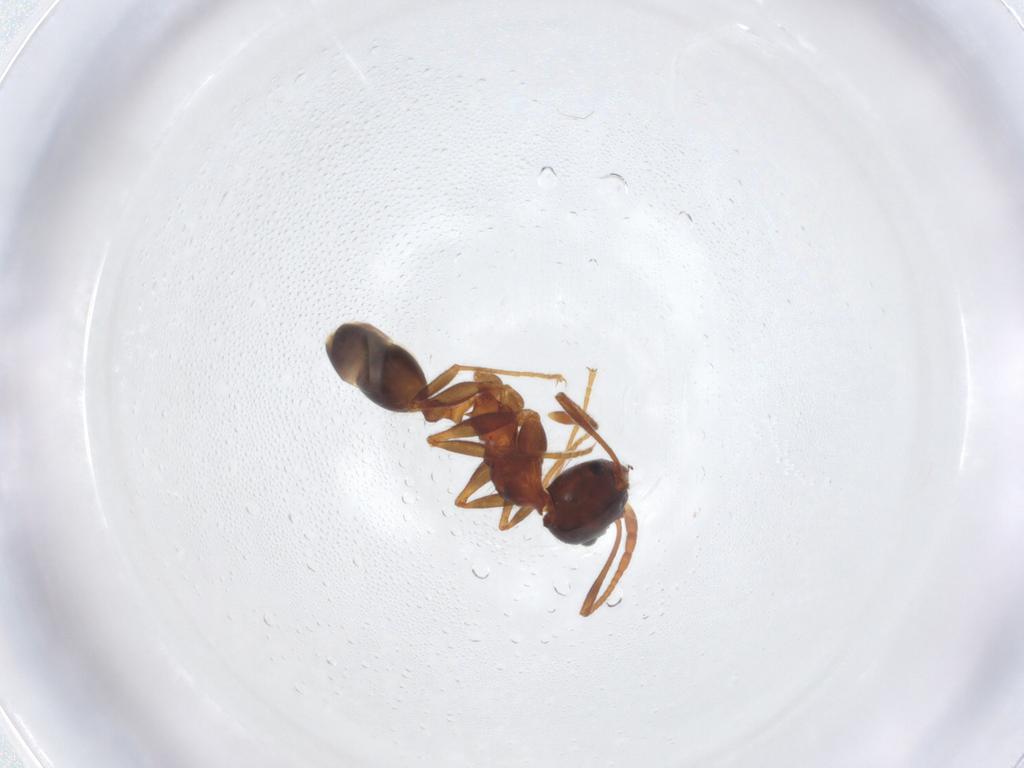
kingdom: Animalia
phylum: Arthropoda
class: Insecta
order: Hymenoptera
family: Formicidae
